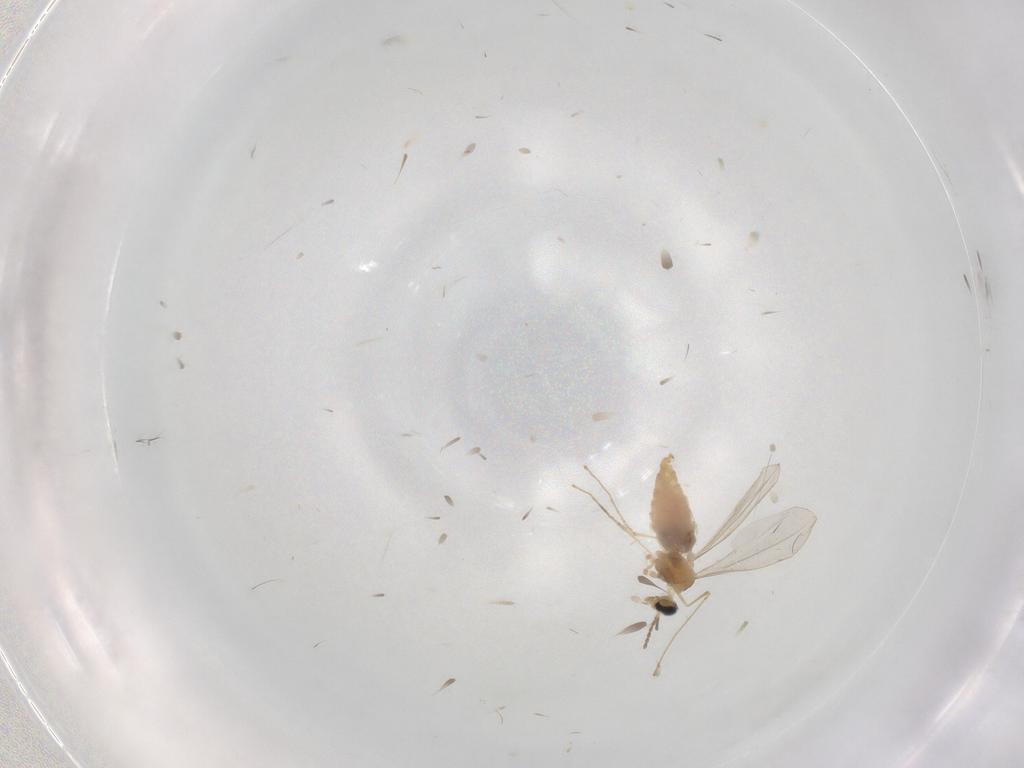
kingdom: Animalia
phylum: Arthropoda
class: Insecta
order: Diptera
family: Cecidomyiidae
